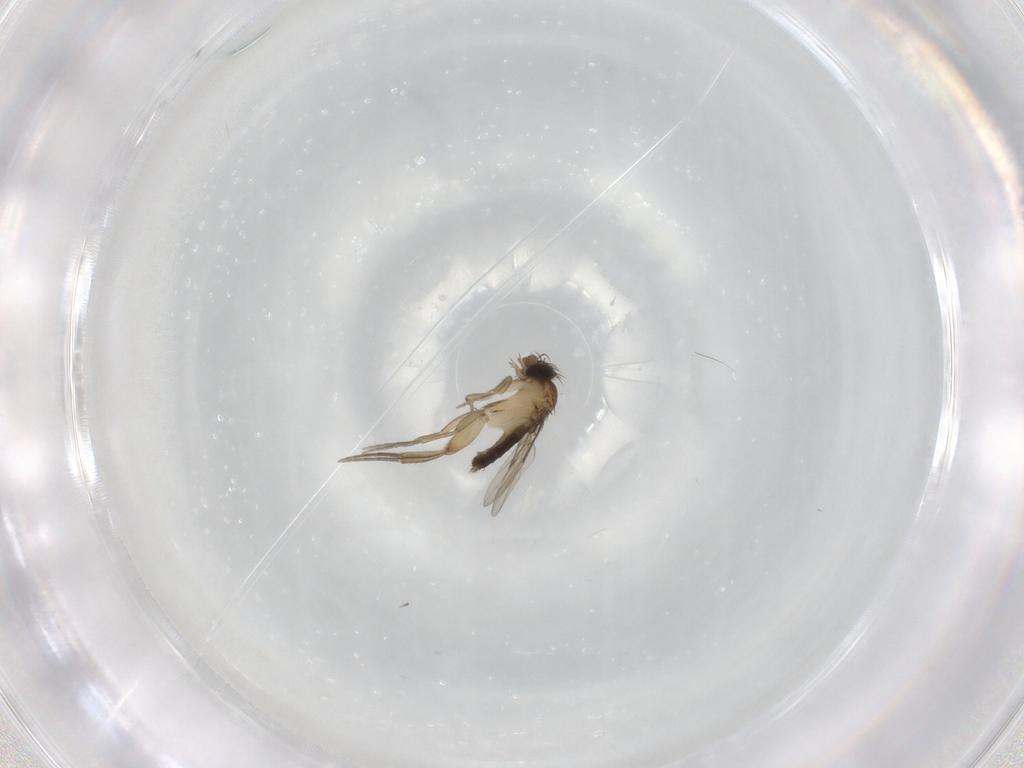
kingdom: Animalia
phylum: Arthropoda
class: Insecta
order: Diptera
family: Phoridae
